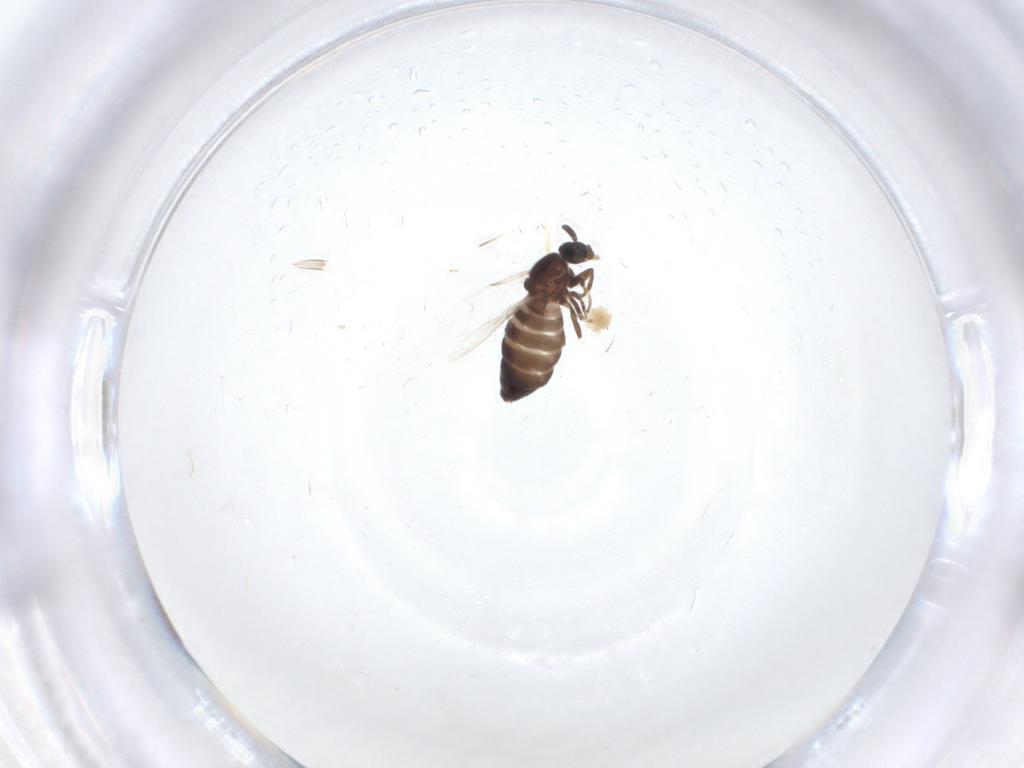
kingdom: Animalia
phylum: Arthropoda
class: Insecta
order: Diptera
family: Scatopsidae
